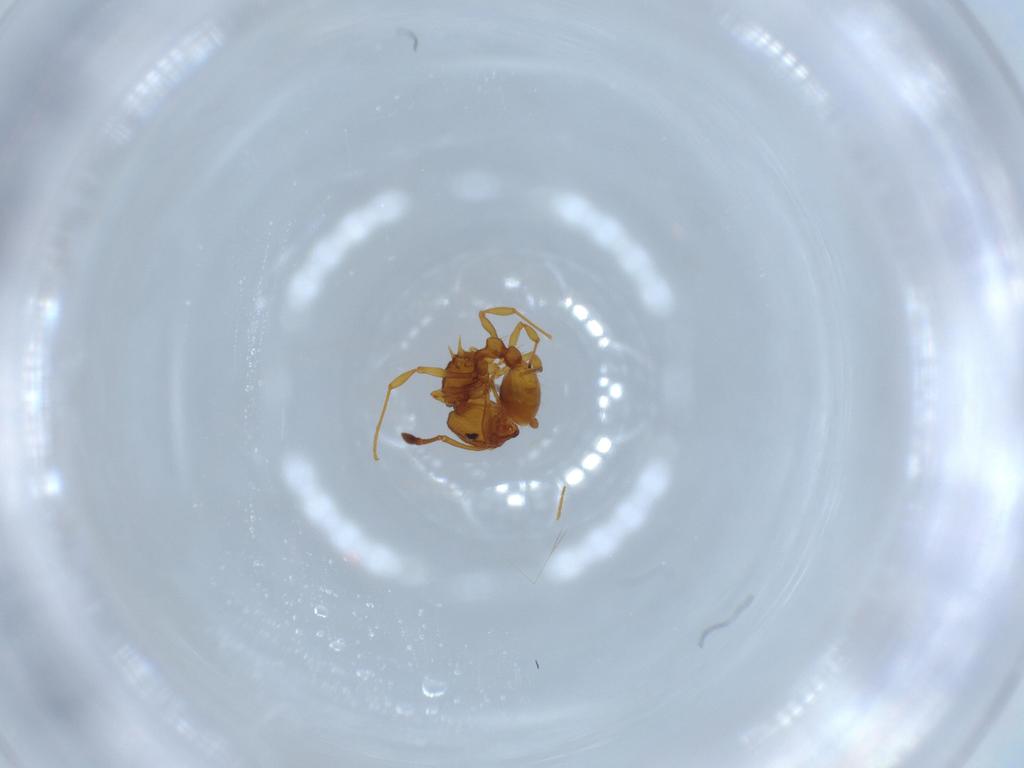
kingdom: Animalia
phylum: Arthropoda
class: Insecta
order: Hymenoptera
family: Formicidae
